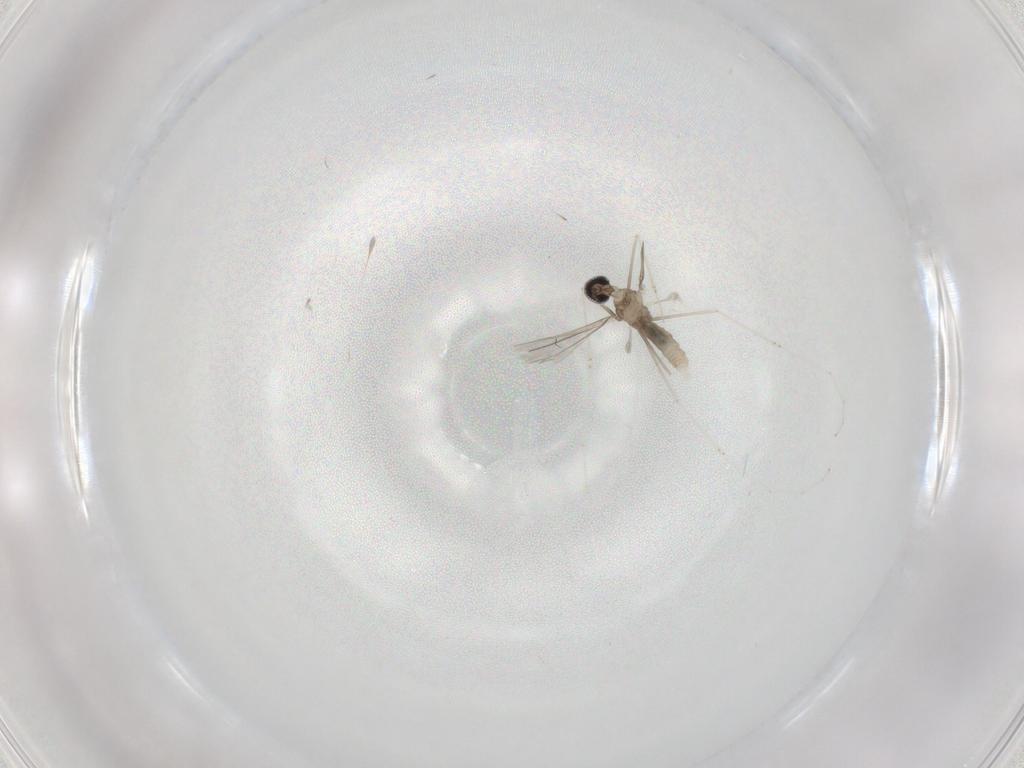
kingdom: Animalia
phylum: Arthropoda
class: Insecta
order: Diptera
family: Cecidomyiidae
